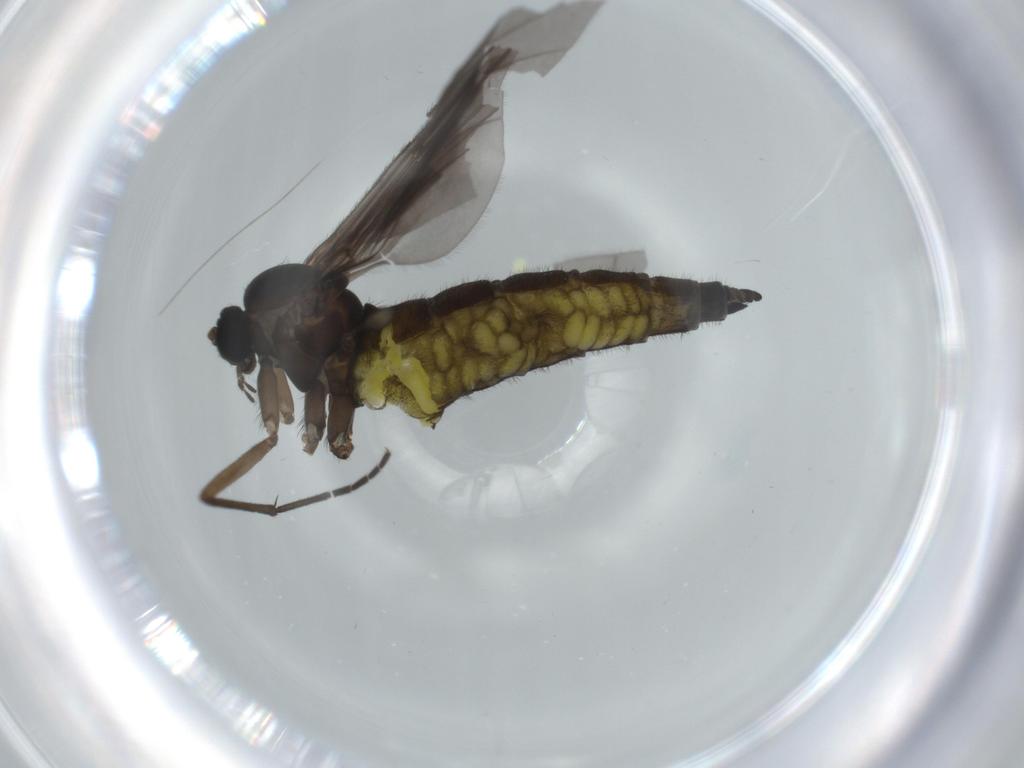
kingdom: Animalia
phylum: Arthropoda
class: Insecta
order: Diptera
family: Sciaridae
